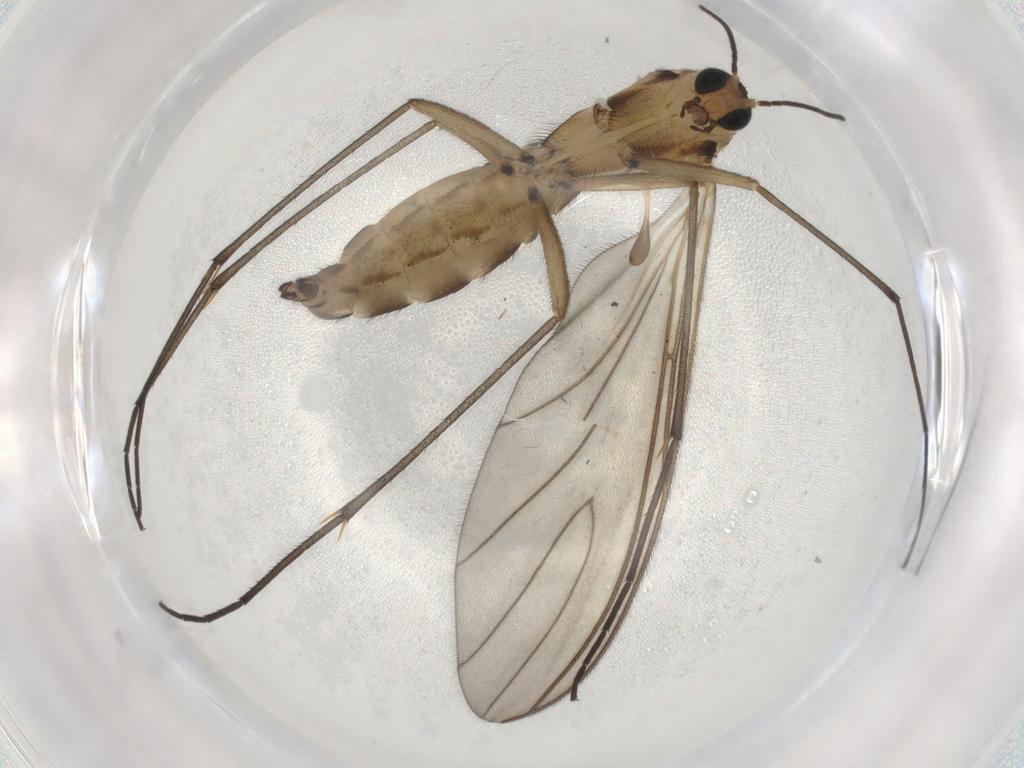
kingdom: Animalia
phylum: Arthropoda
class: Insecta
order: Diptera
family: Sciaridae
